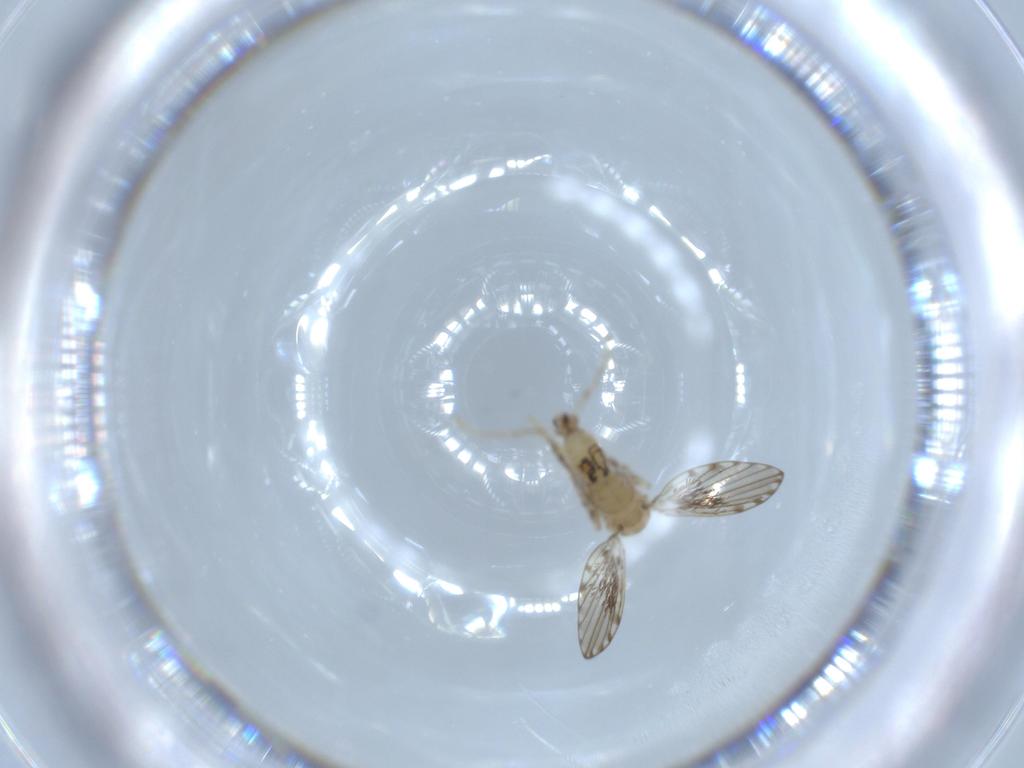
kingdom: Animalia
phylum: Arthropoda
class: Insecta
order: Diptera
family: Psychodidae
